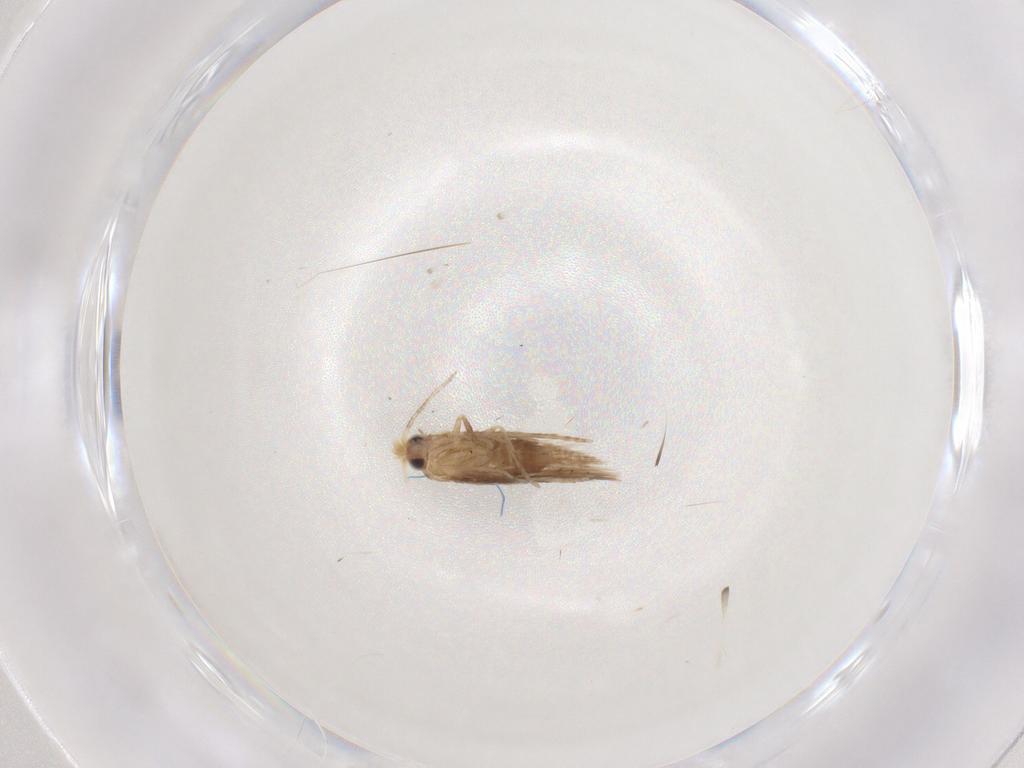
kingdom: Animalia
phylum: Arthropoda
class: Insecta
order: Lepidoptera
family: Nepticulidae
